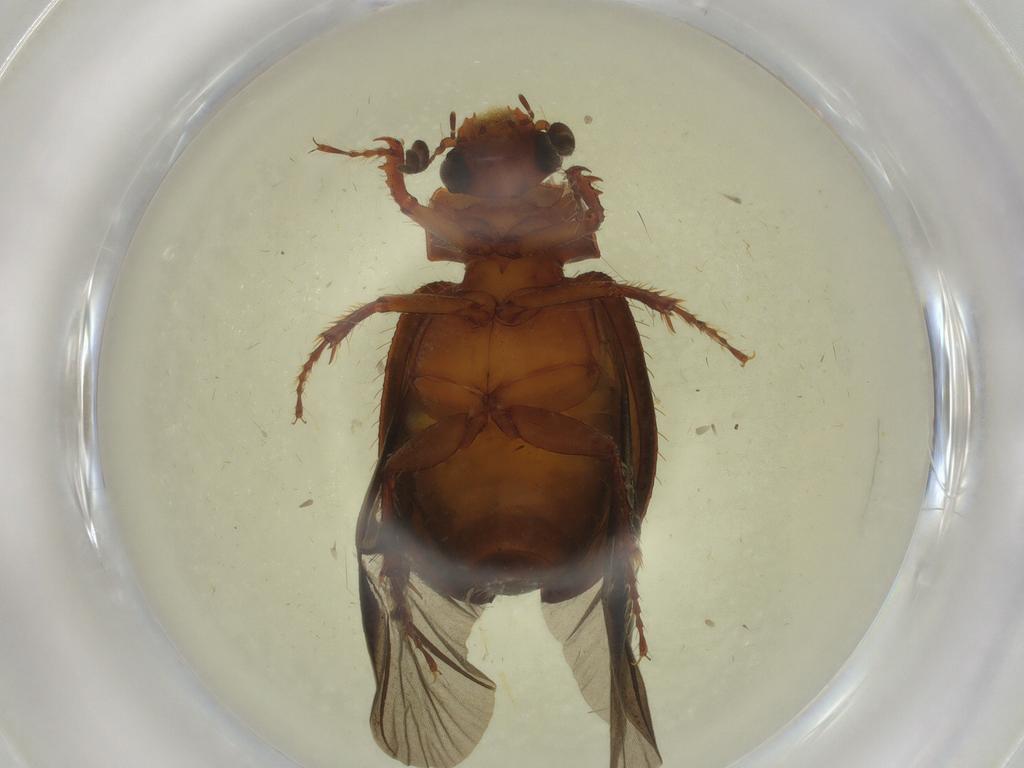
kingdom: Animalia
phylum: Arthropoda
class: Insecta
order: Coleoptera
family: Hybosoridae
